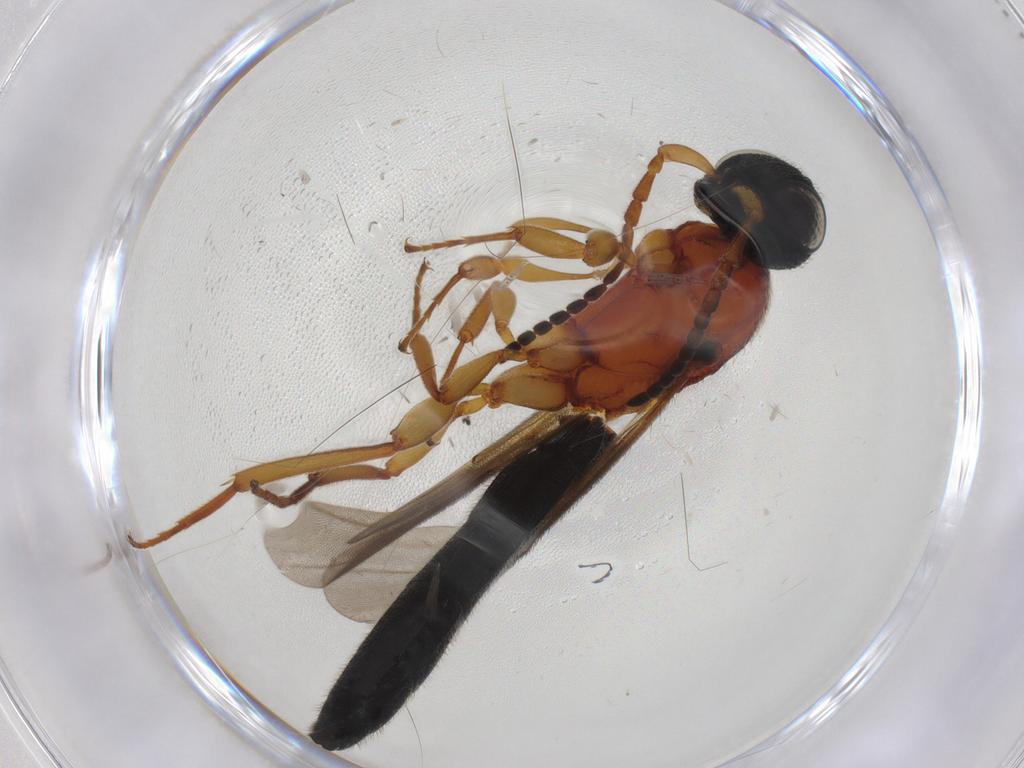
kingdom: Animalia
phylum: Arthropoda
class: Insecta
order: Hymenoptera
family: Scelionidae
